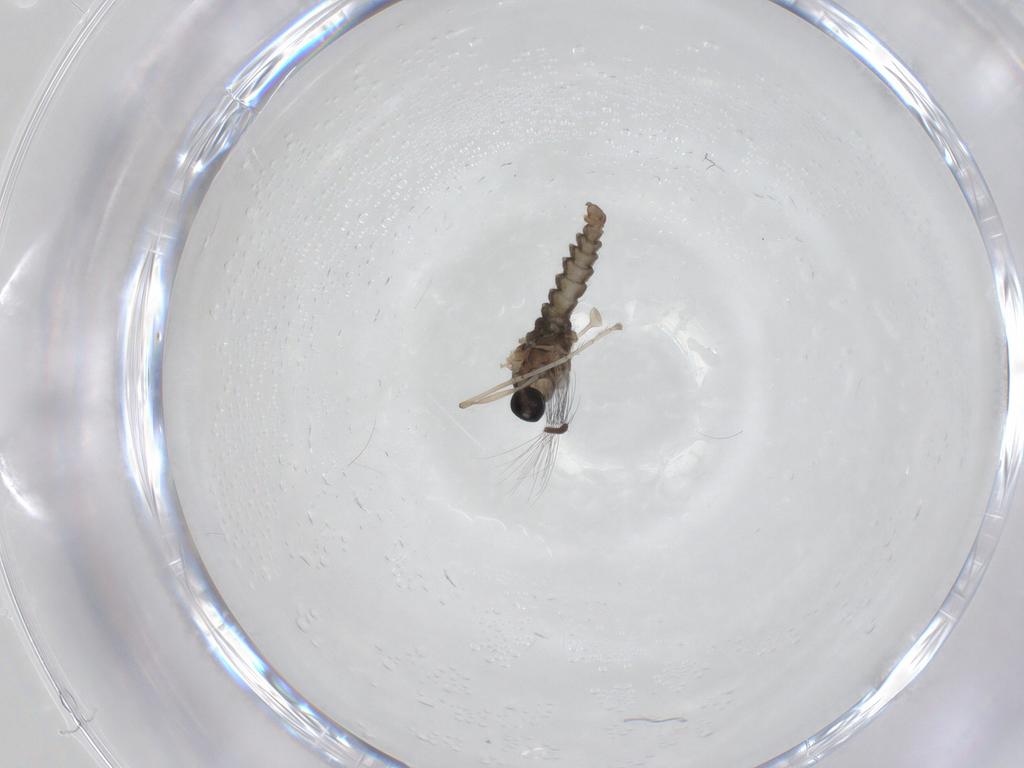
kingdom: Animalia
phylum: Arthropoda
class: Insecta
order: Diptera
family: Cecidomyiidae
